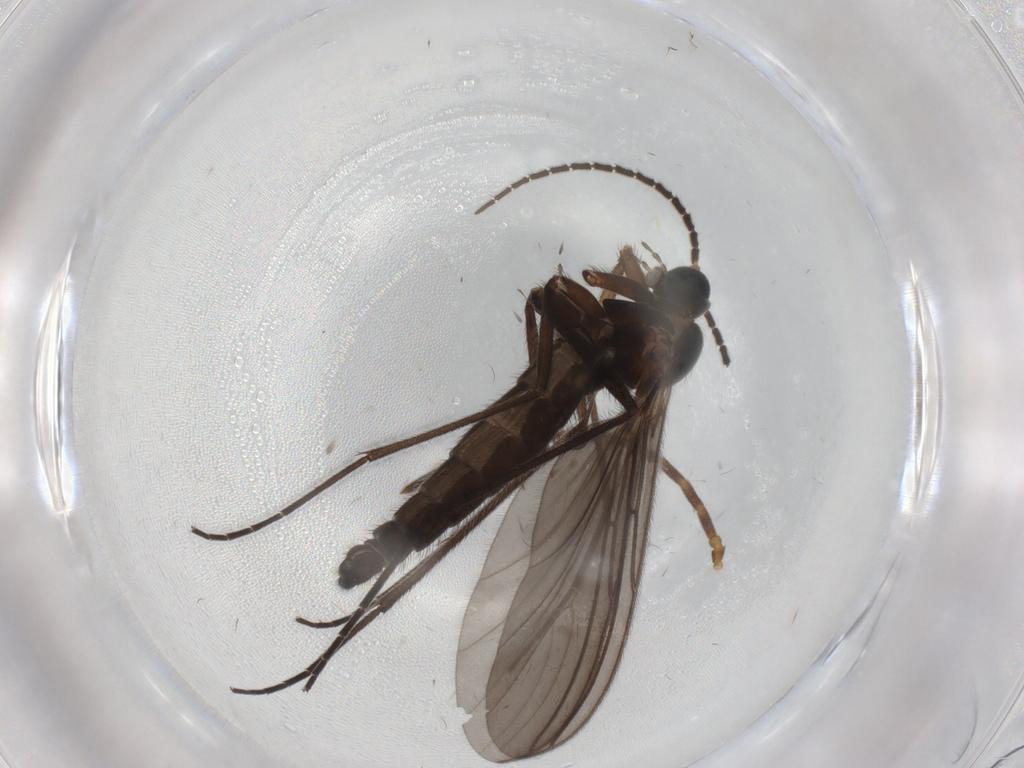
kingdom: Animalia
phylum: Arthropoda
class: Insecta
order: Diptera
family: Sciaridae
